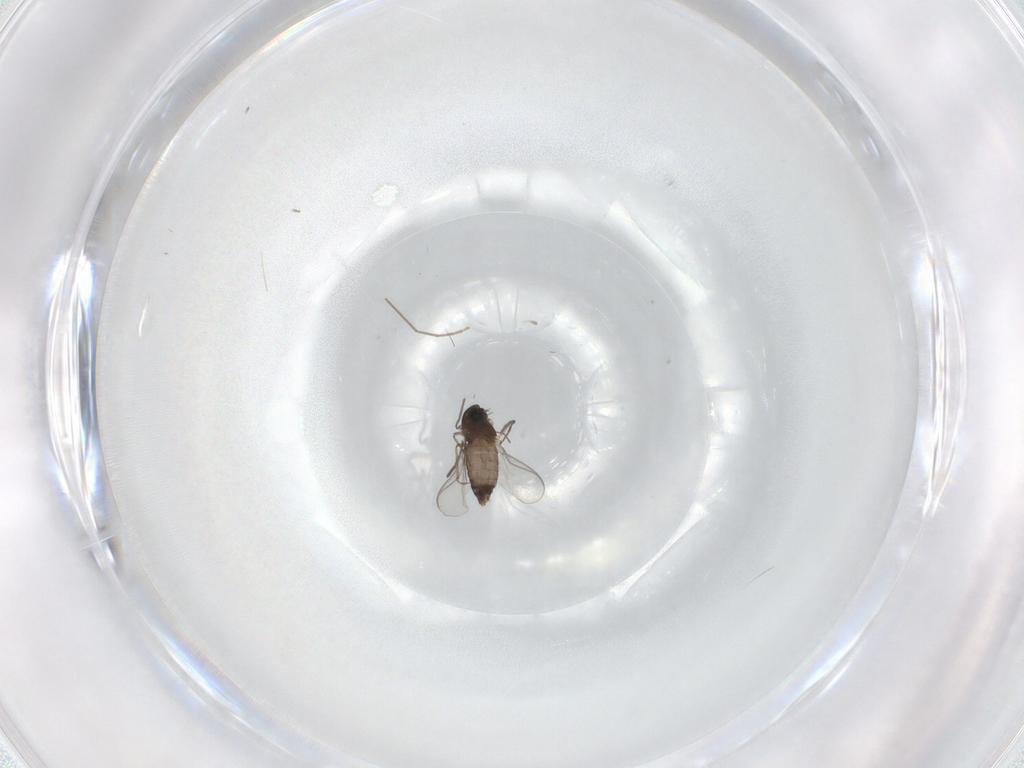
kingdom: Animalia
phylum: Arthropoda
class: Insecta
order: Diptera
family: Chironomidae
